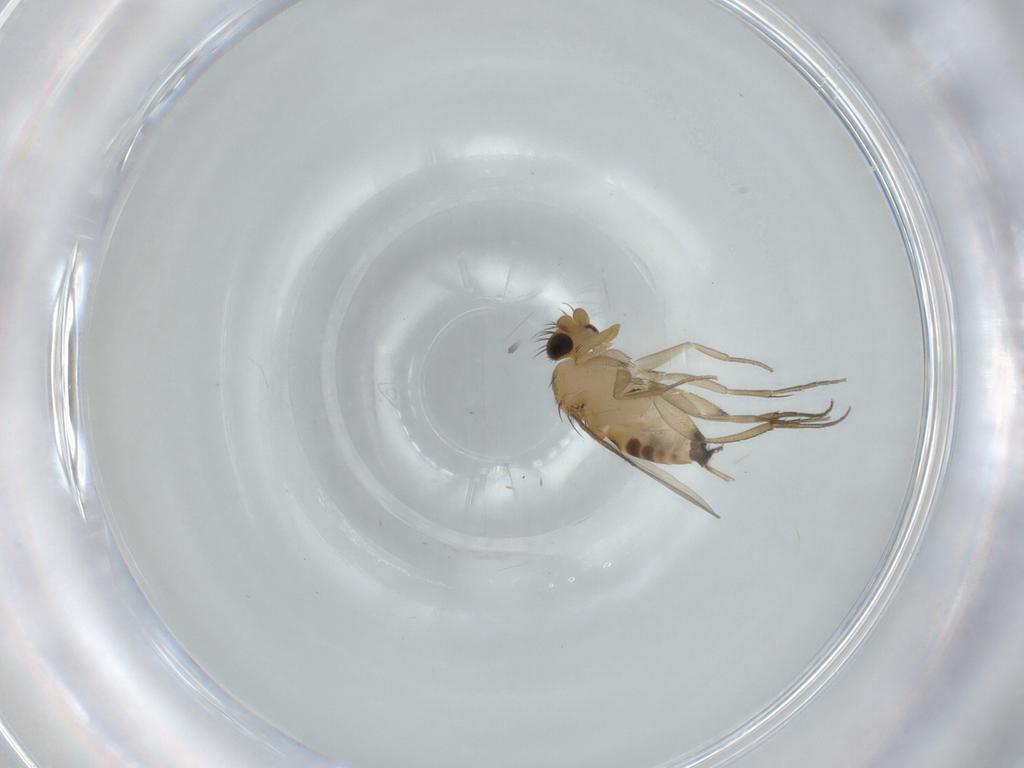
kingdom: Animalia
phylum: Arthropoda
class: Insecta
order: Diptera
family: Phoridae
